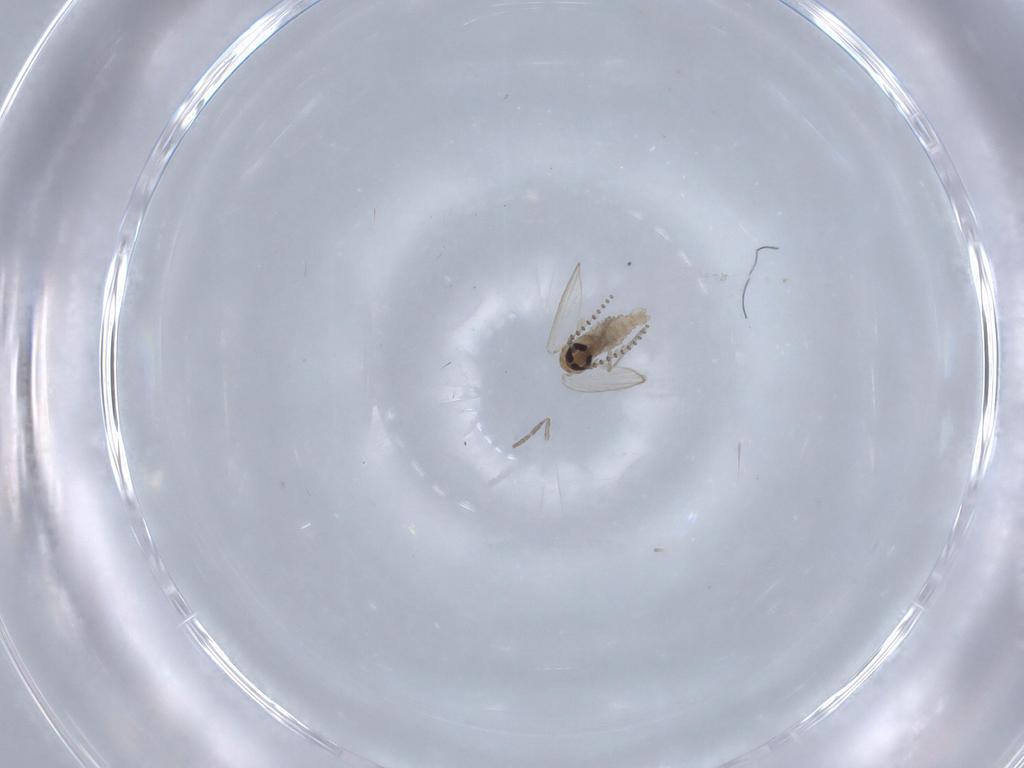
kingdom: Animalia
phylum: Arthropoda
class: Insecta
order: Diptera
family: Psychodidae
